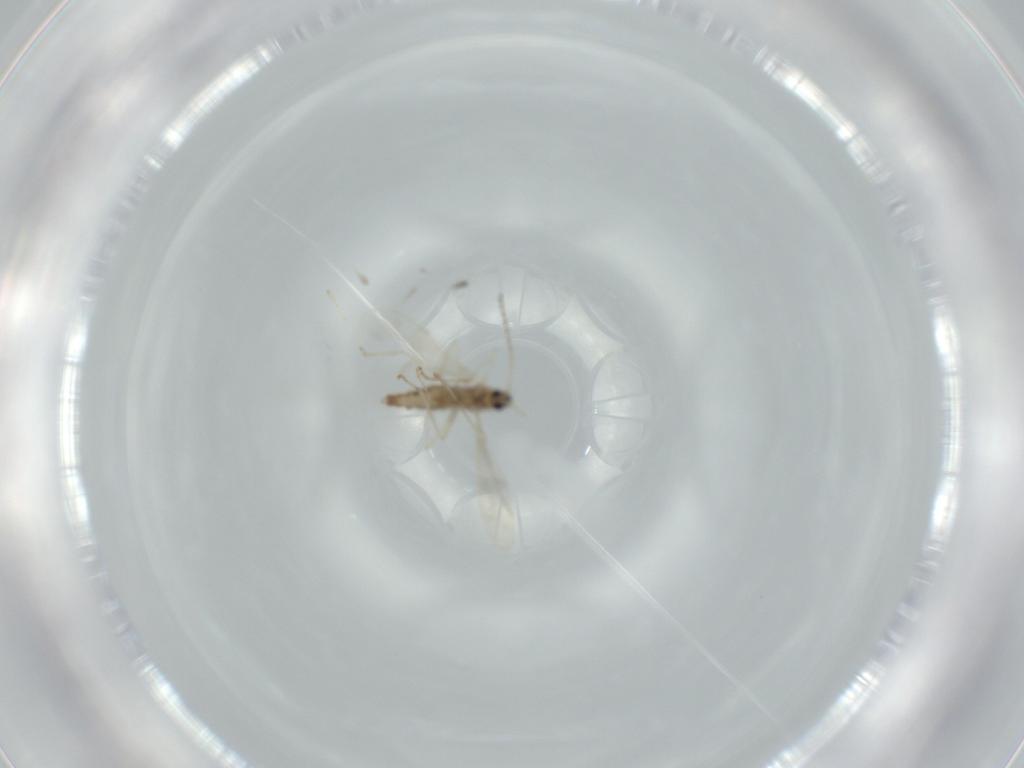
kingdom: Animalia
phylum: Arthropoda
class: Insecta
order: Diptera
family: Cecidomyiidae
